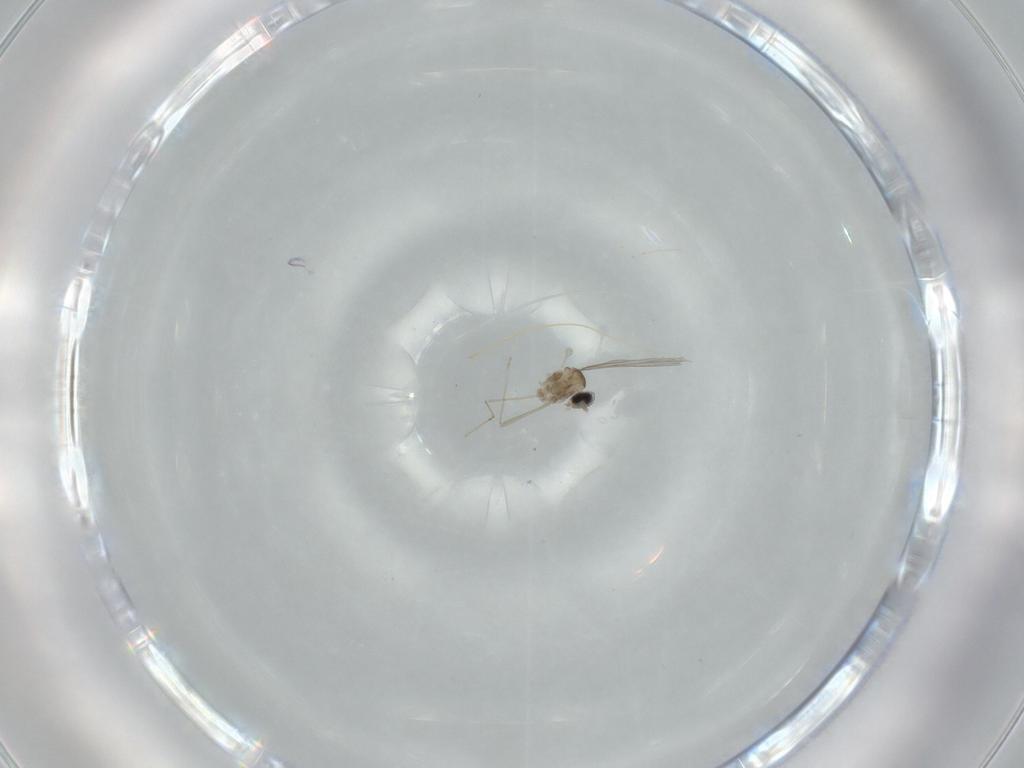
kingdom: Animalia
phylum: Arthropoda
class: Insecta
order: Diptera
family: Cecidomyiidae
